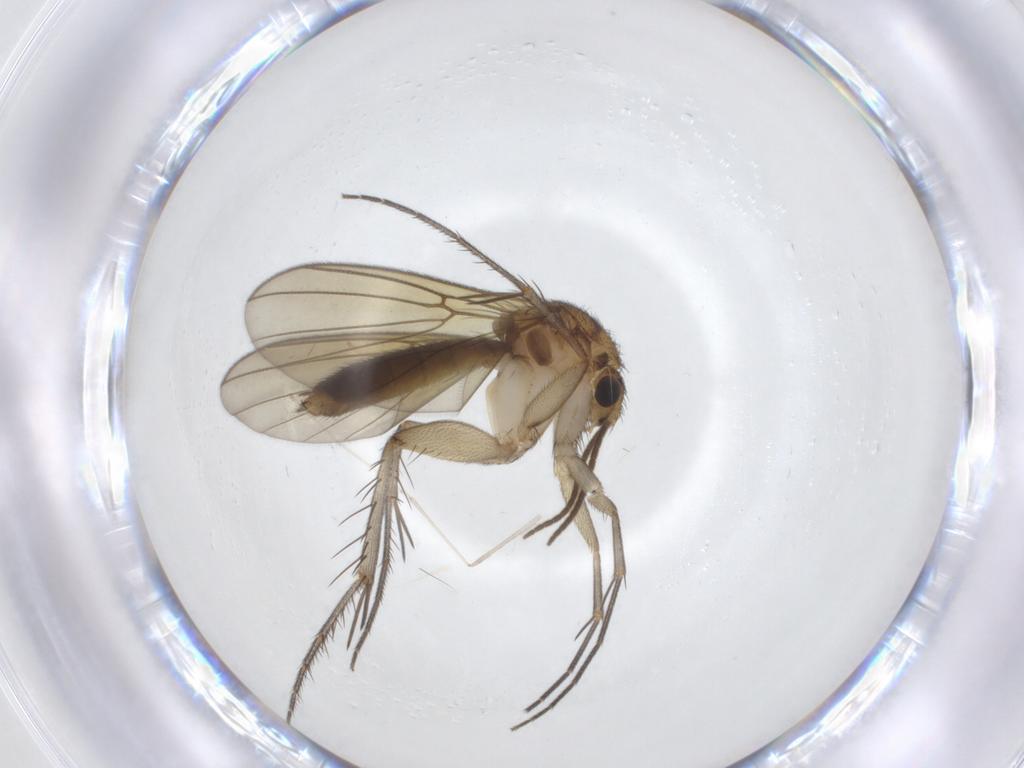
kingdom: Animalia
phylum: Arthropoda
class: Insecta
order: Diptera
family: Mycetophilidae
